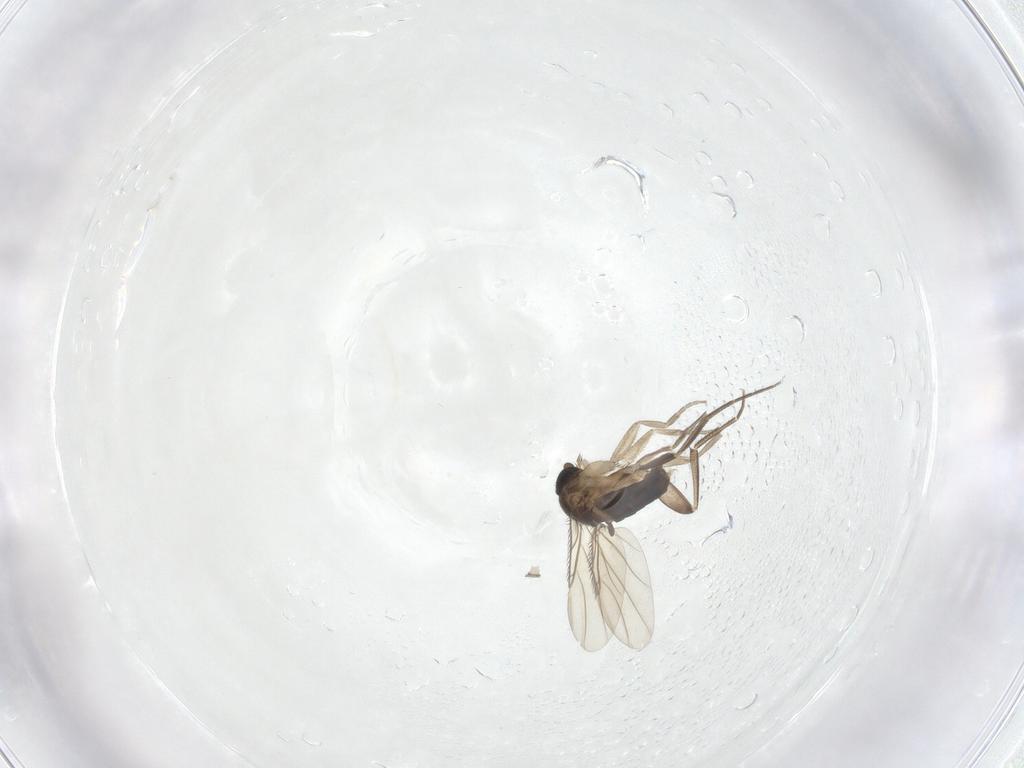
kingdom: Animalia
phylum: Arthropoda
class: Insecta
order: Diptera
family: Phoridae
